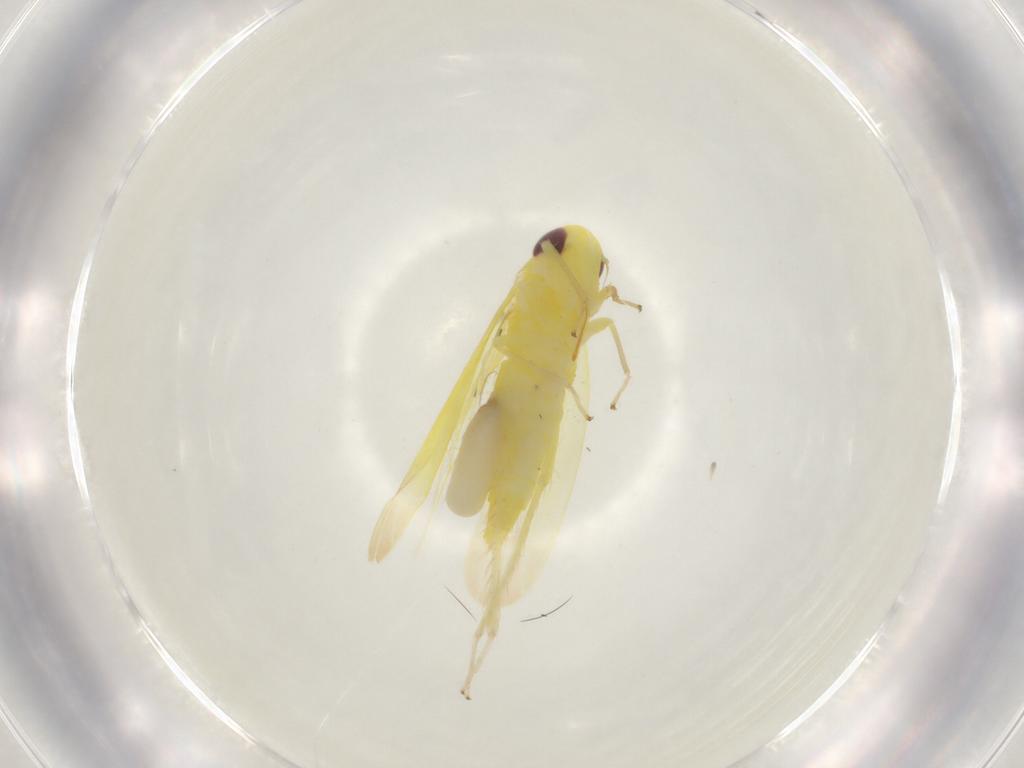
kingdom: Animalia
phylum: Arthropoda
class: Insecta
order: Hemiptera
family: Cicadellidae
